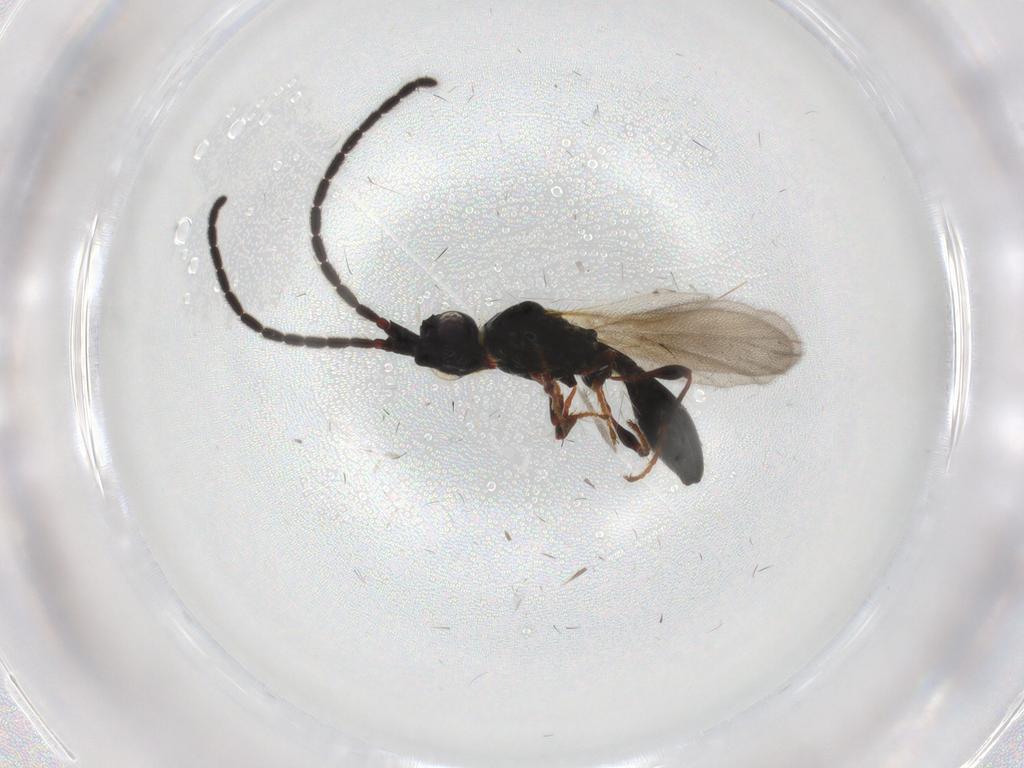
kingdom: Animalia
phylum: Arthropoda
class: Insecta
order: Hymenoptera
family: Diapriidae
